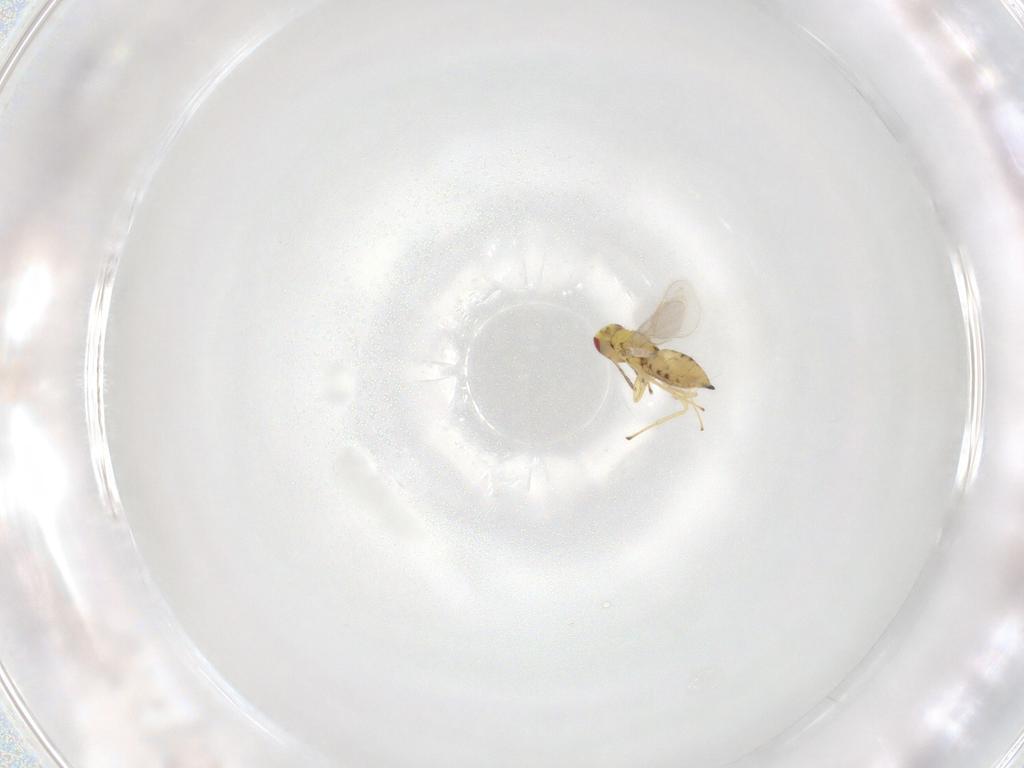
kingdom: Animalia
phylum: Arthropoda
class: Insecta
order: Hymenoptera
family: Eulophidae
